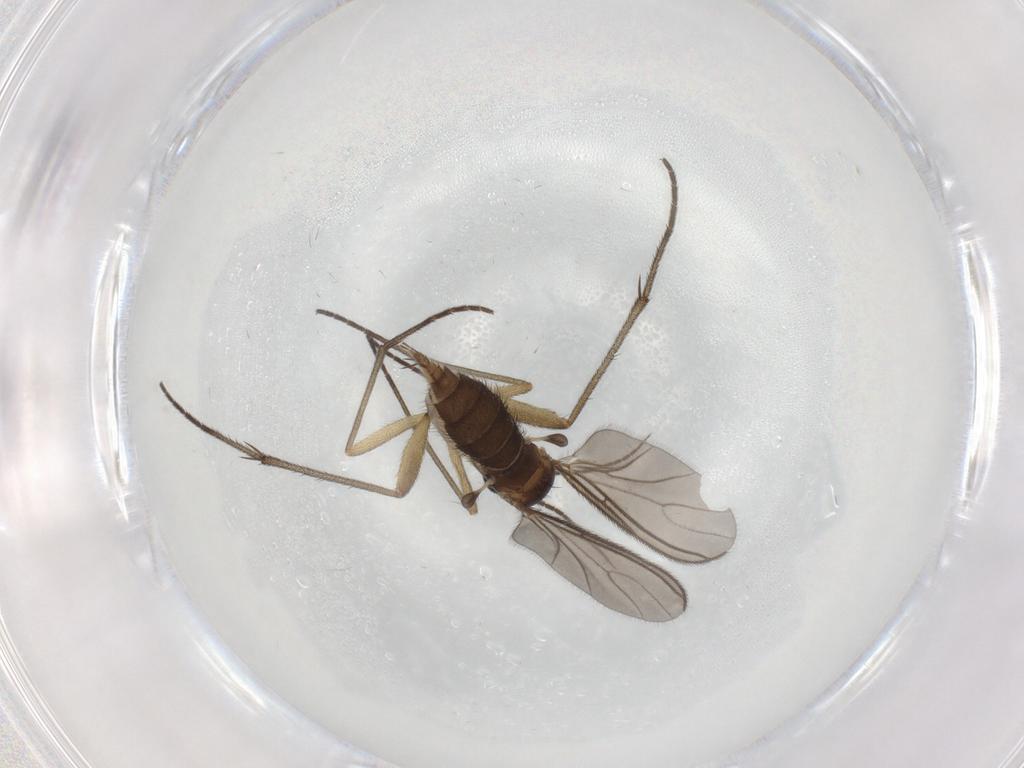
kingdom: Animalia
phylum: Arthropoda
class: Insecta
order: Diptera
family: Sciaridae
